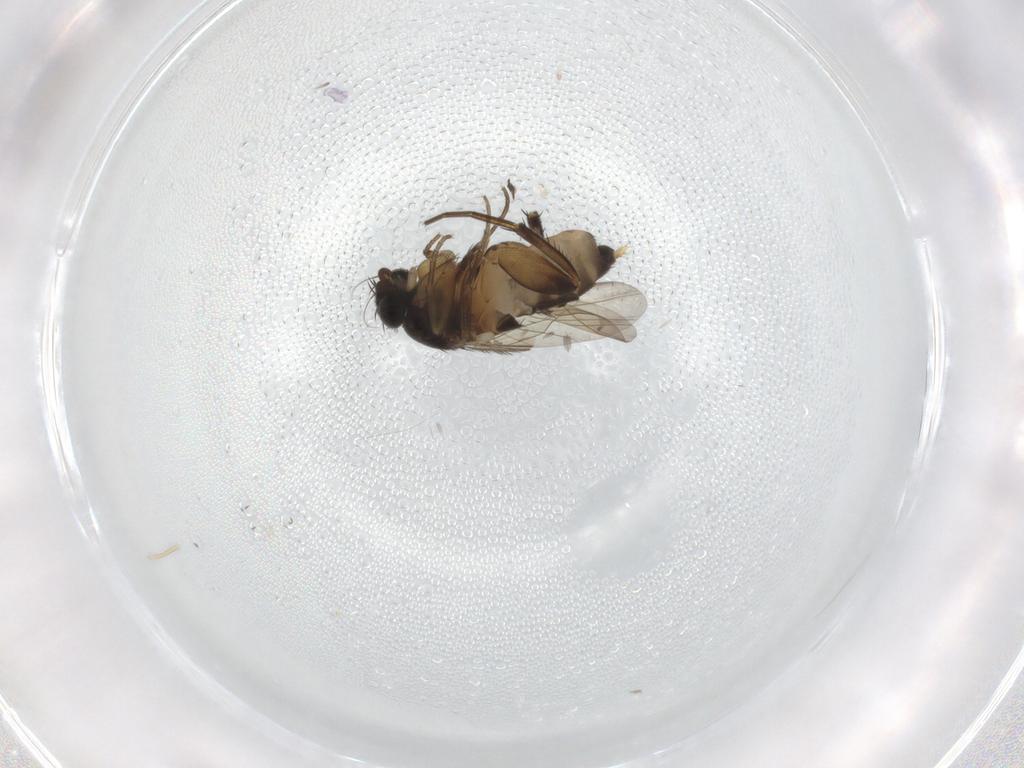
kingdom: Animalia
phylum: Arthropoda
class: Insecta
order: Diptera
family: Phoridae
